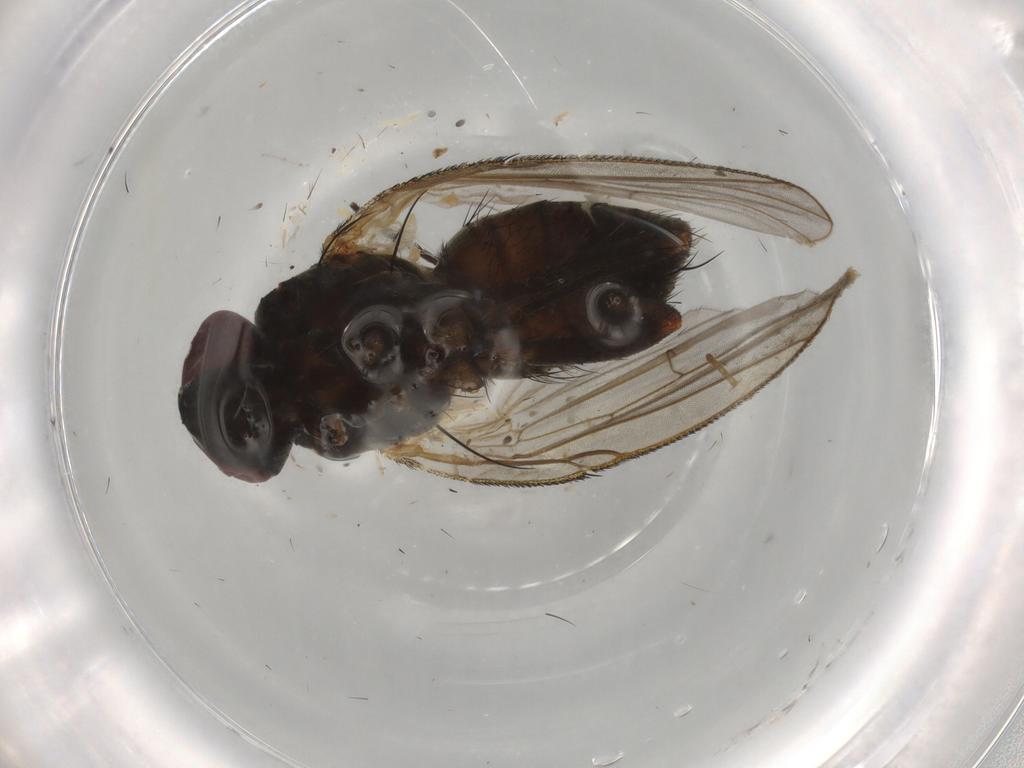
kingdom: Animalia
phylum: Arthropoda
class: Insecta
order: Diptera
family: Muscidae
